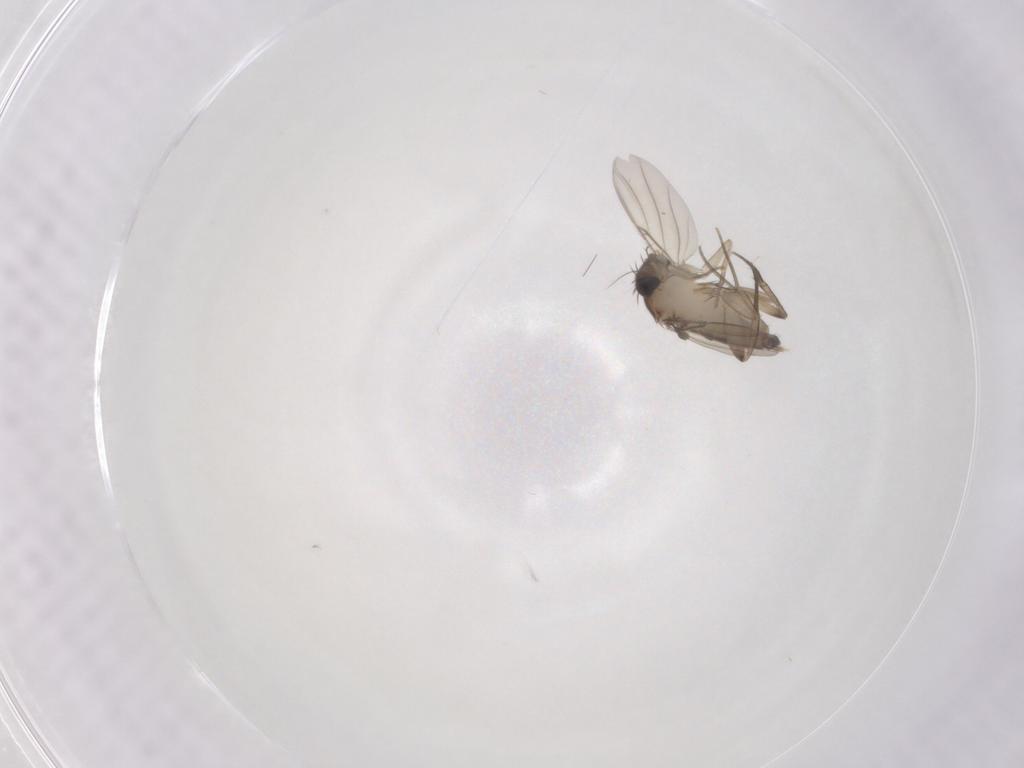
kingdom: Animalia
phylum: Arthropoda
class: Insecta
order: Diptera
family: Phoridae
